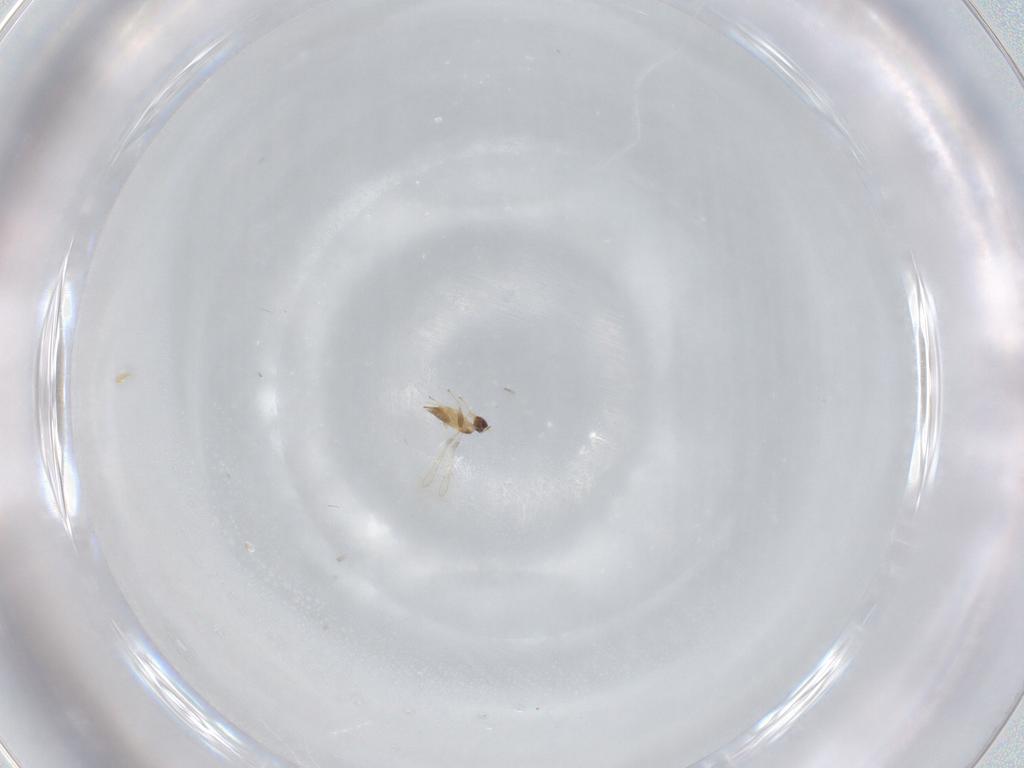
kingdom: Animalia
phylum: Arthropoda
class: Insecta
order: Hymenoptera
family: Mymaridae
